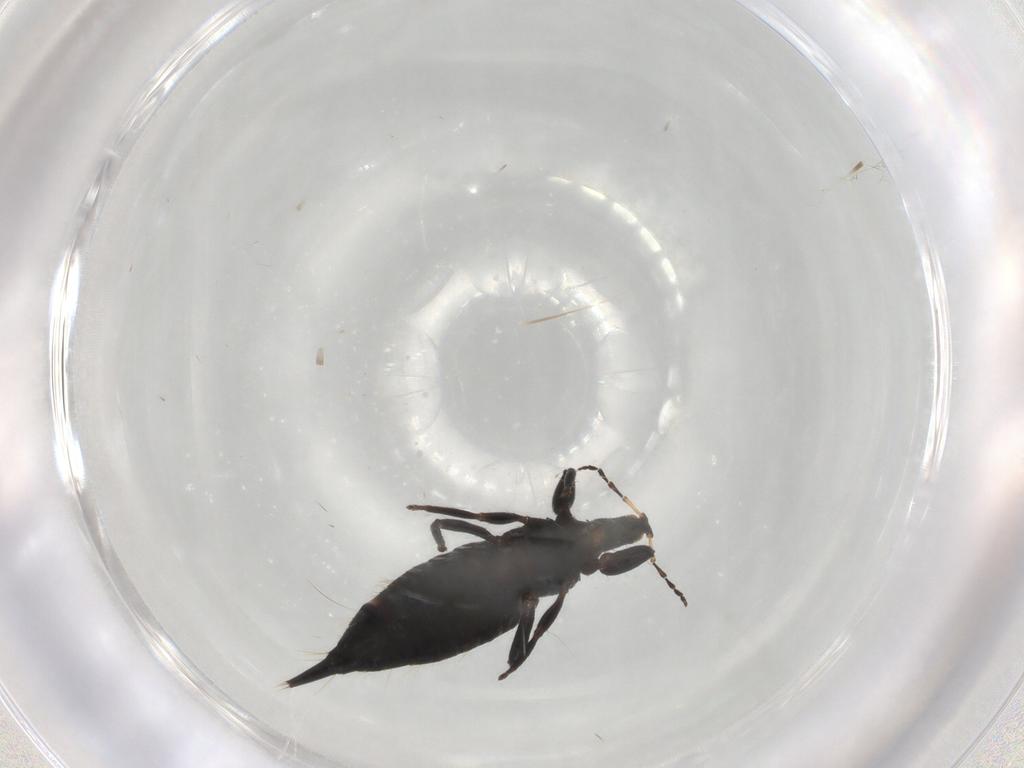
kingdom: Animalia
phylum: Arthropoda
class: Insecta
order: Thysanoptera
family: Phlaeothripidae
